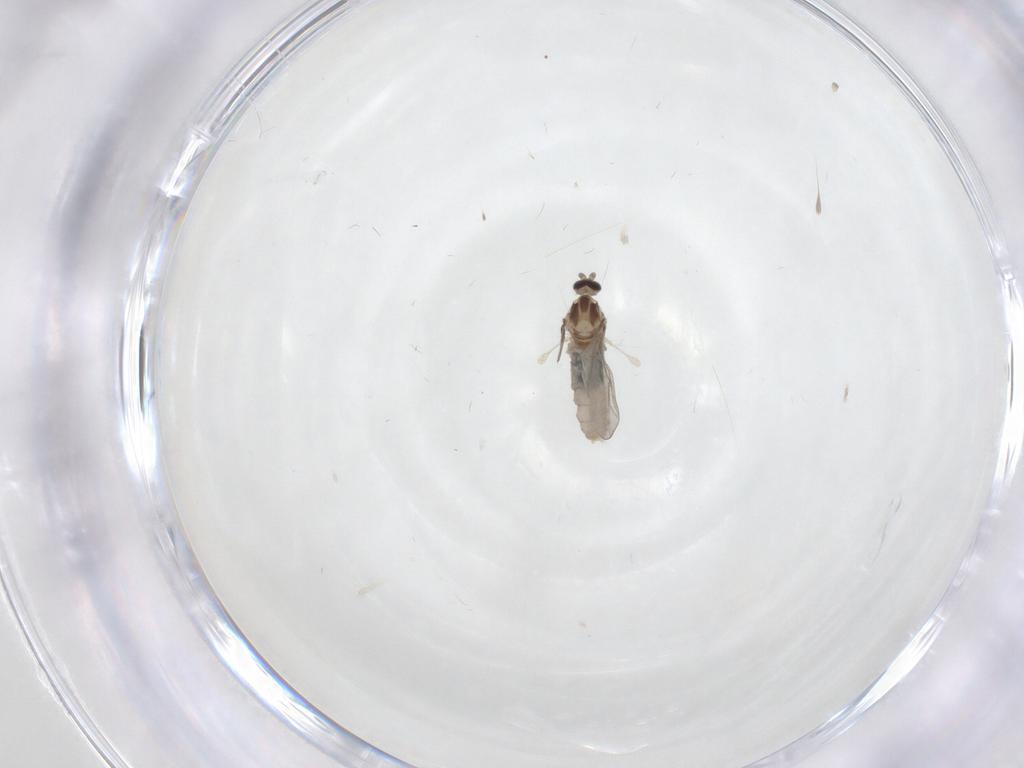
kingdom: Animalia
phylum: Arthropoda
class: Insecta
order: Diptera
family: Cecidomyiidae
